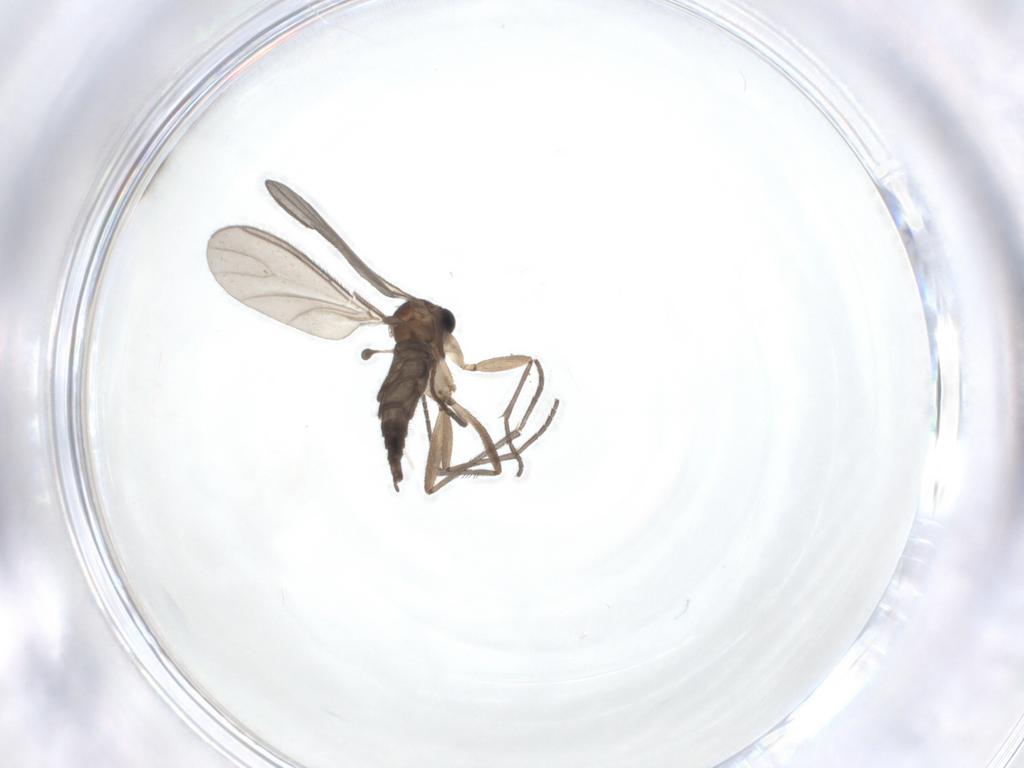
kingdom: Animalia
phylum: Arthropoda
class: Insecta
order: Diptera
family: Mycetophilidae
